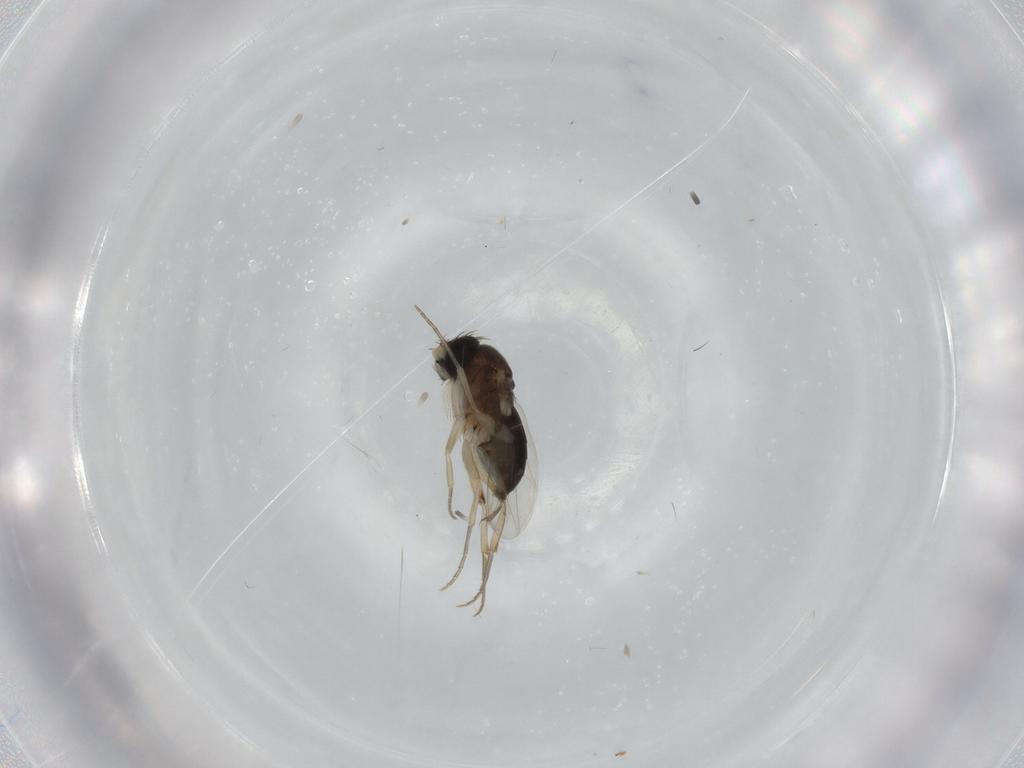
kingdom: Animalia
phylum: Arthropoda
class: Insecta
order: Diptera
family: Phoridae
